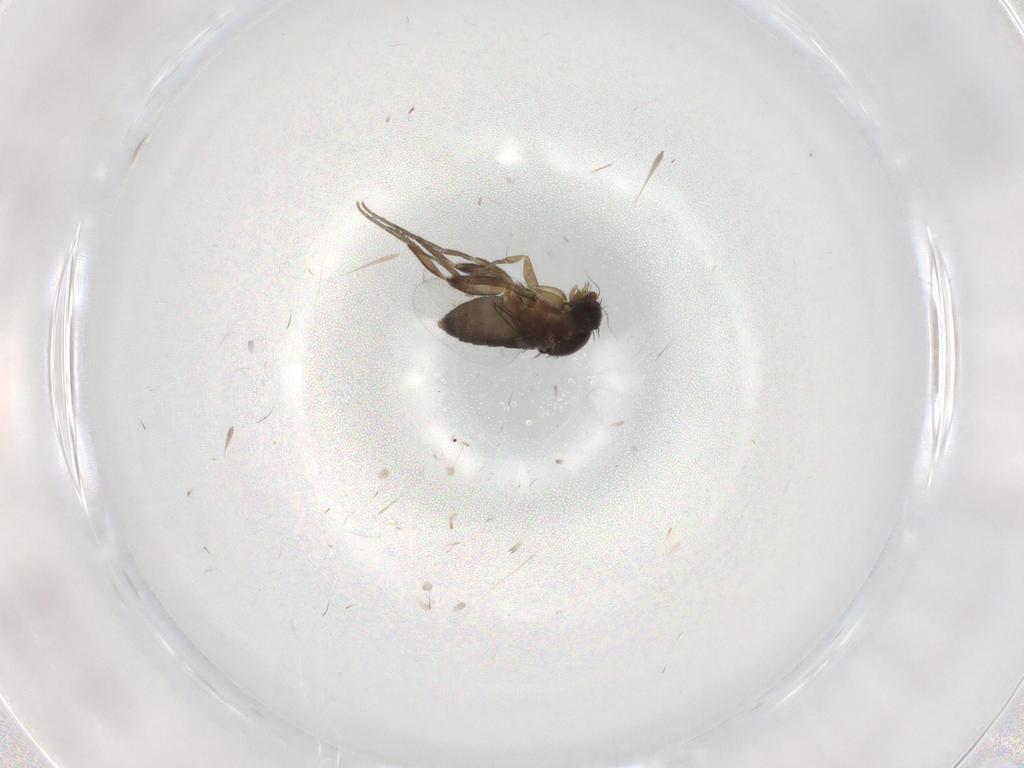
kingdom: Animalia
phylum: Arthropoda
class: Insecta
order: Diptera
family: Phoridae
